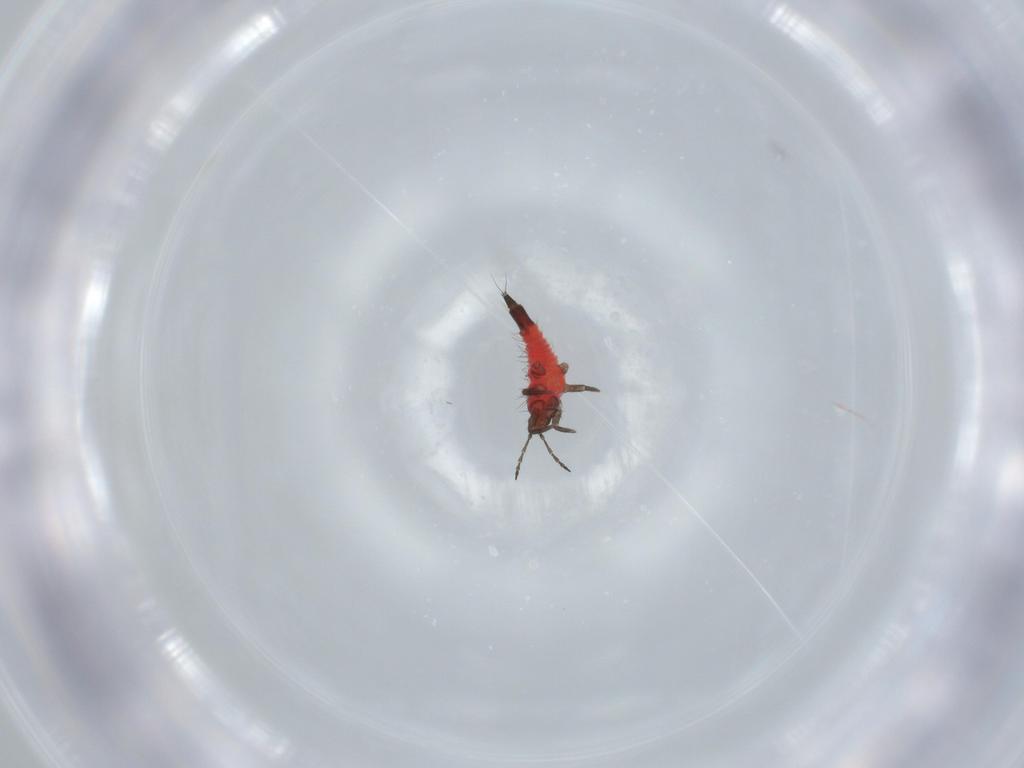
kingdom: Animalia
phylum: Arthropoda
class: Insecta
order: Thysanoptera
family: Phlaeothripidae
